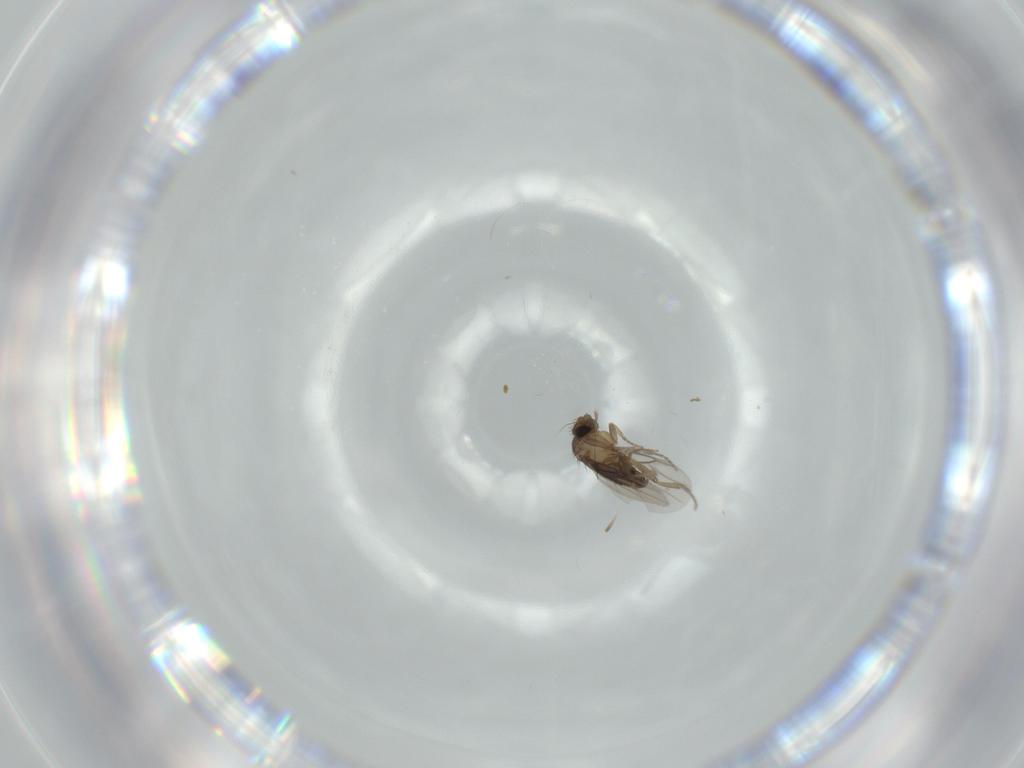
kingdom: Animalia
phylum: Arthropoda
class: Insecta
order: Diptera
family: Phoridae
